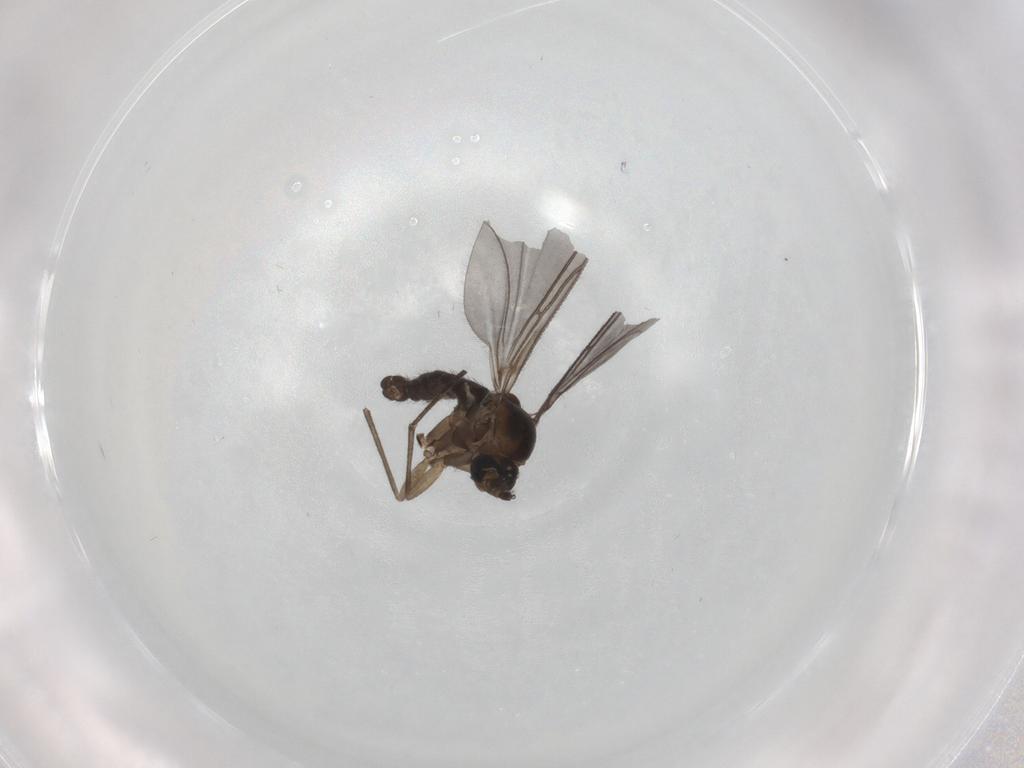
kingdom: Animalia
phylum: Arthropoda
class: Insecta
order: Diptera
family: Sciaridae
